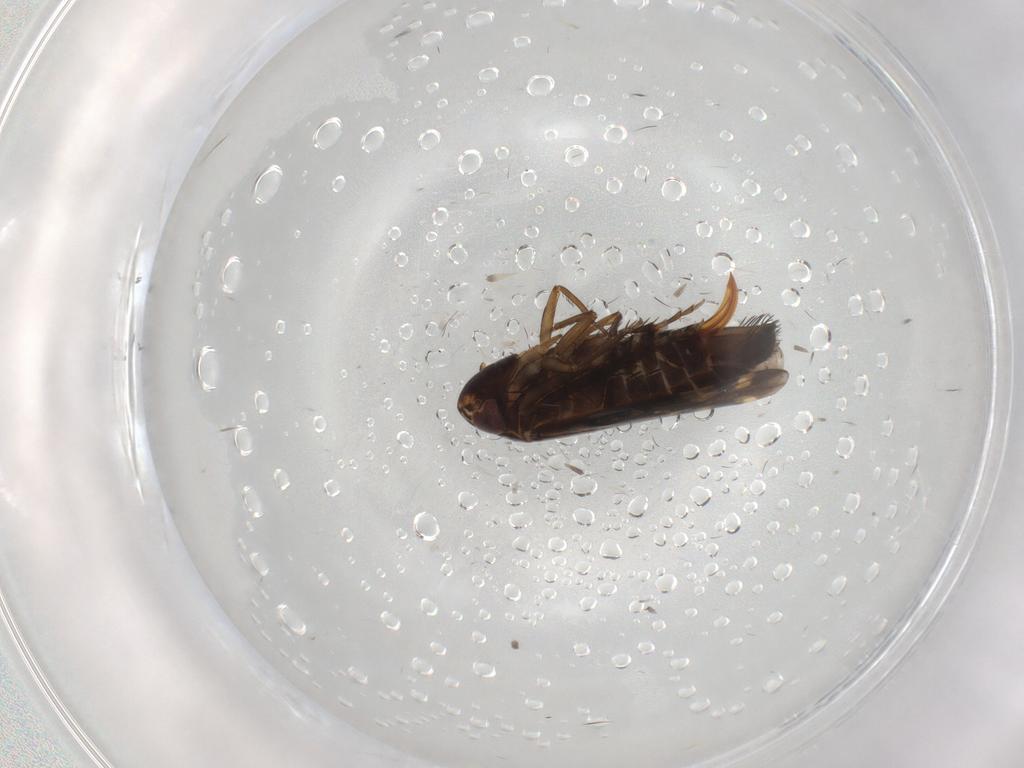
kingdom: Animalia
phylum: Arthropoda
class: Insecta
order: Hemiptera
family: Cicadellidae
